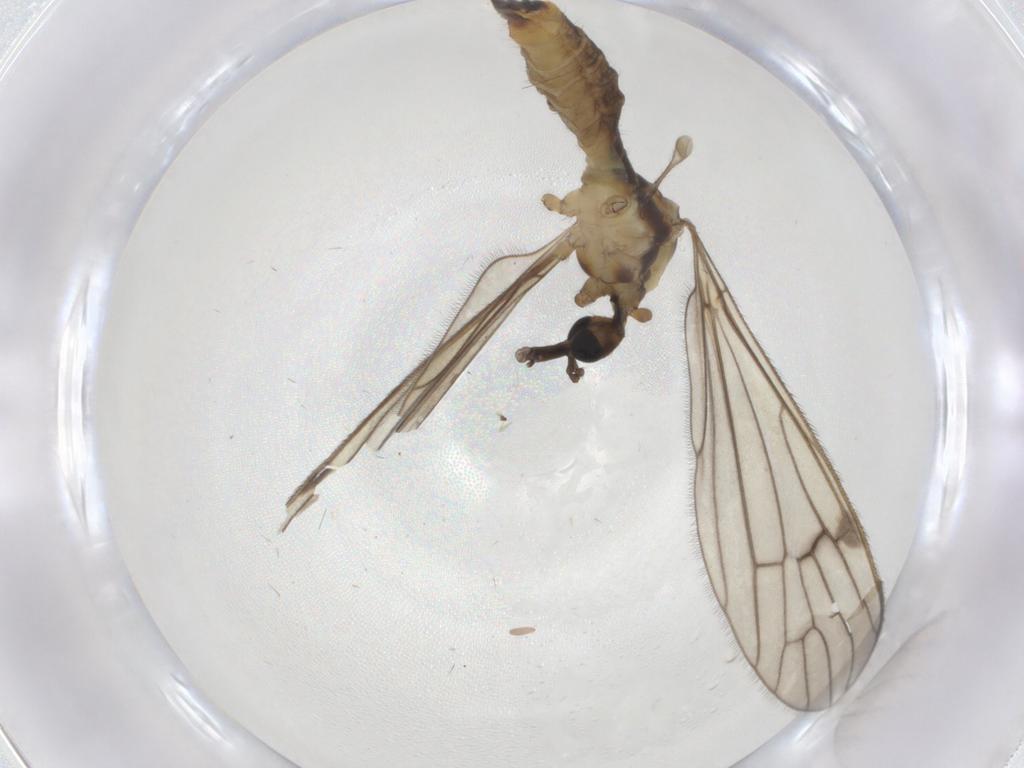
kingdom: Animalia
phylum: Arthropoda
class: Insecta
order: Diptera
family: Limoniidae
